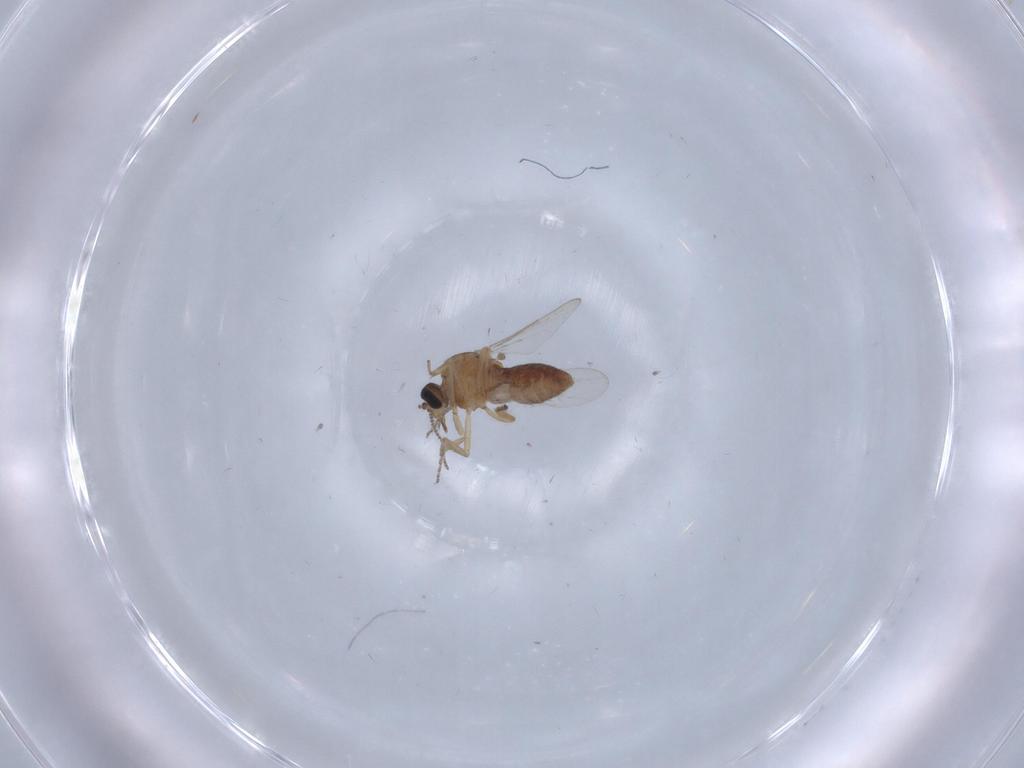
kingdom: Animalia
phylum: Arthropoda
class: Insecta
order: Diptera
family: Ceratopogonidae
